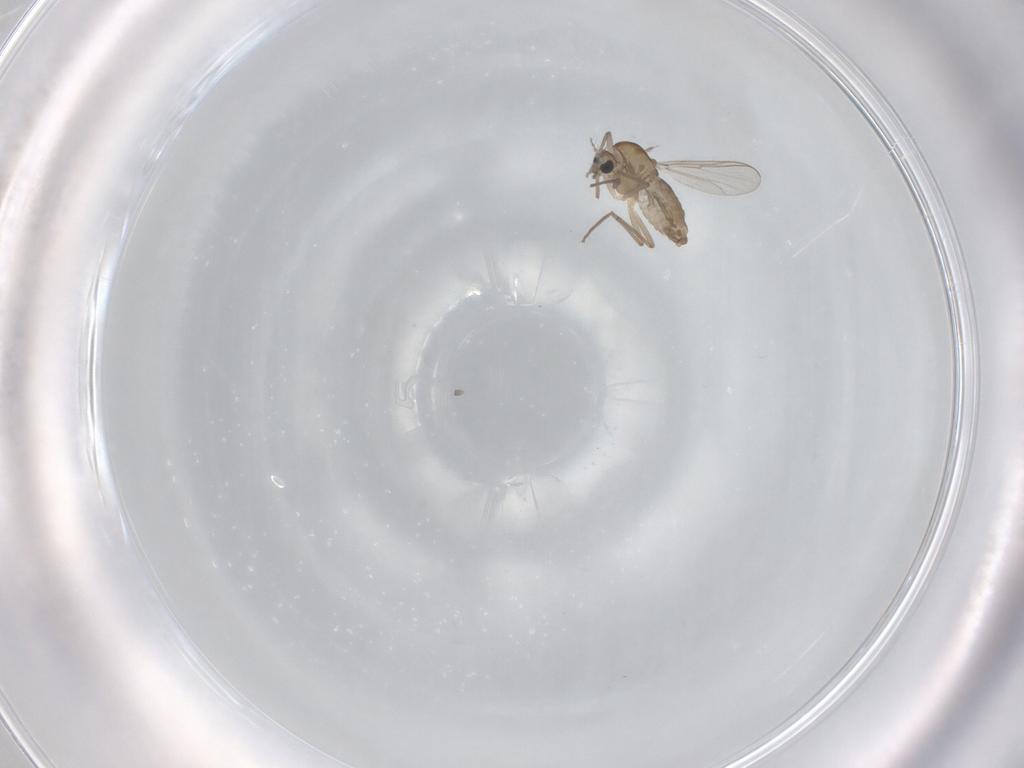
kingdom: Animalia
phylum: Arthropoda
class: Insecta
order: Diptera
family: Chironomidae
